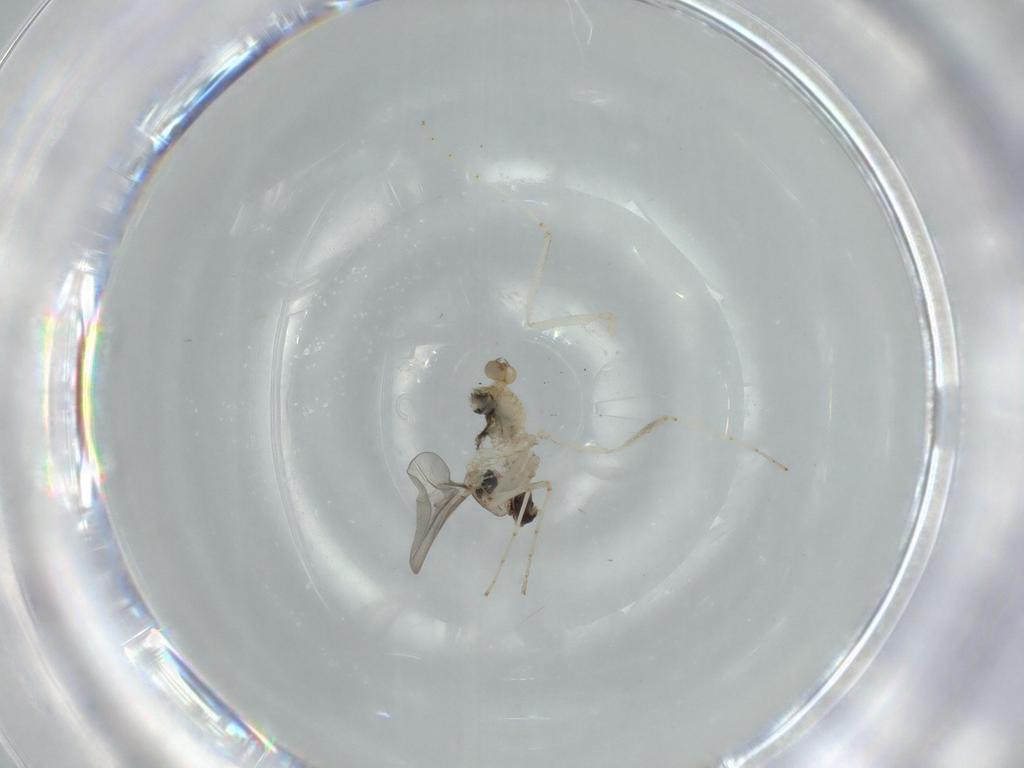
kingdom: Animalia
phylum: Arthropoda
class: Insecta
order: Diptera
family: Cecidomyiidae
